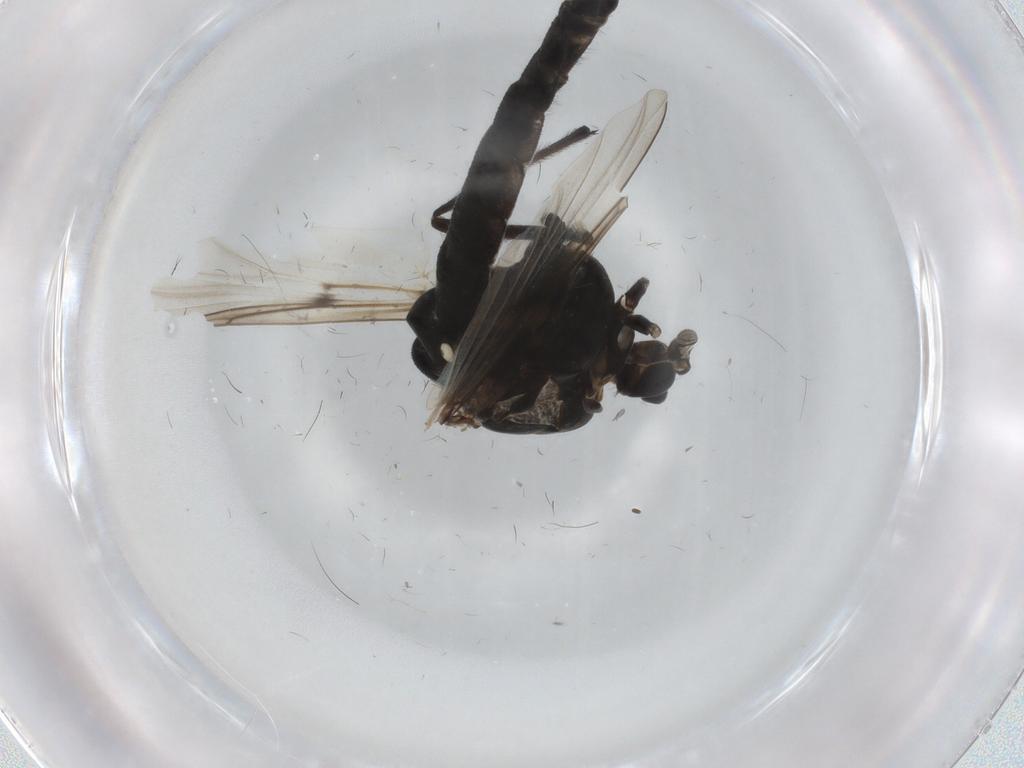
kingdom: Animalia
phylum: Arthropoda
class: Insecta
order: Diptera
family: Chironomidae
